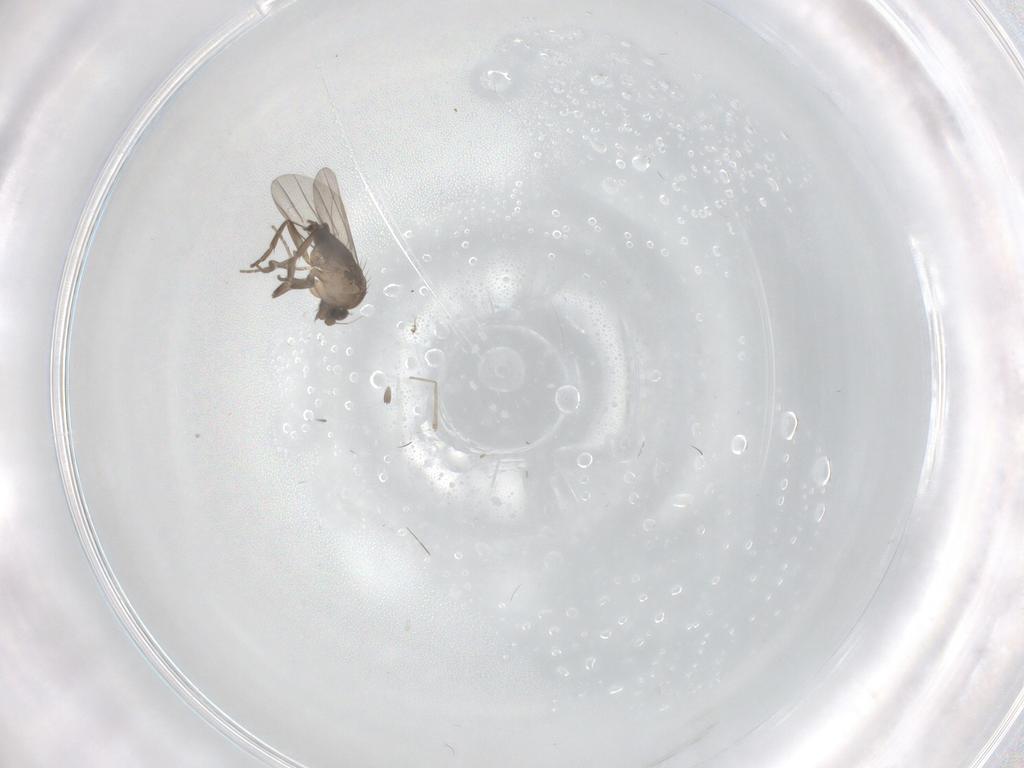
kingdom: Animalia
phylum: Arthropoda
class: Insecta
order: Diptera
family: Phoridae
